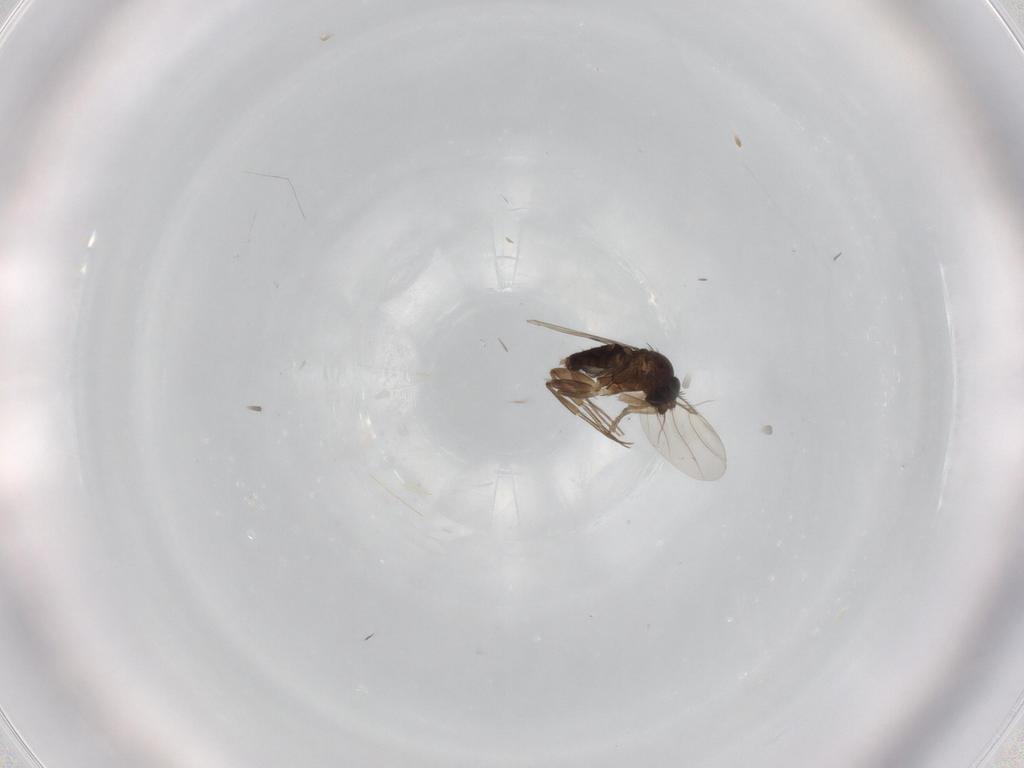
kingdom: Animalia
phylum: Arthropoda
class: Insecta
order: Diptera
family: Phoridae
